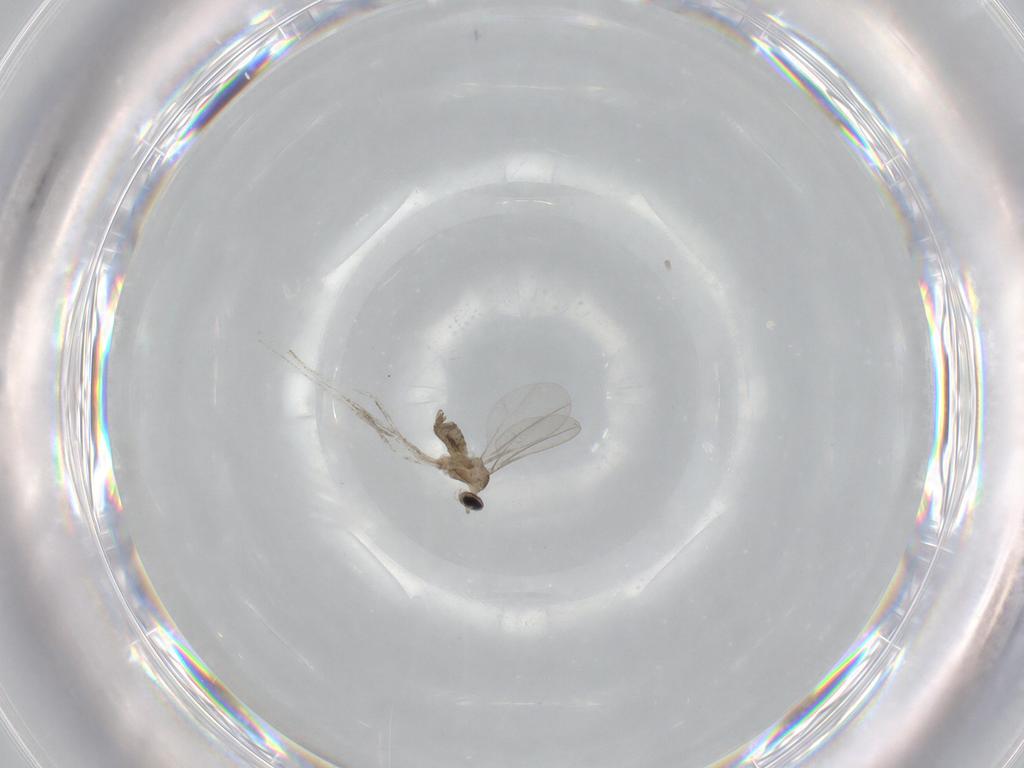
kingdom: Animalia
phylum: Arthropoda
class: Insecta
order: Diptera
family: Cecidomyiidae
